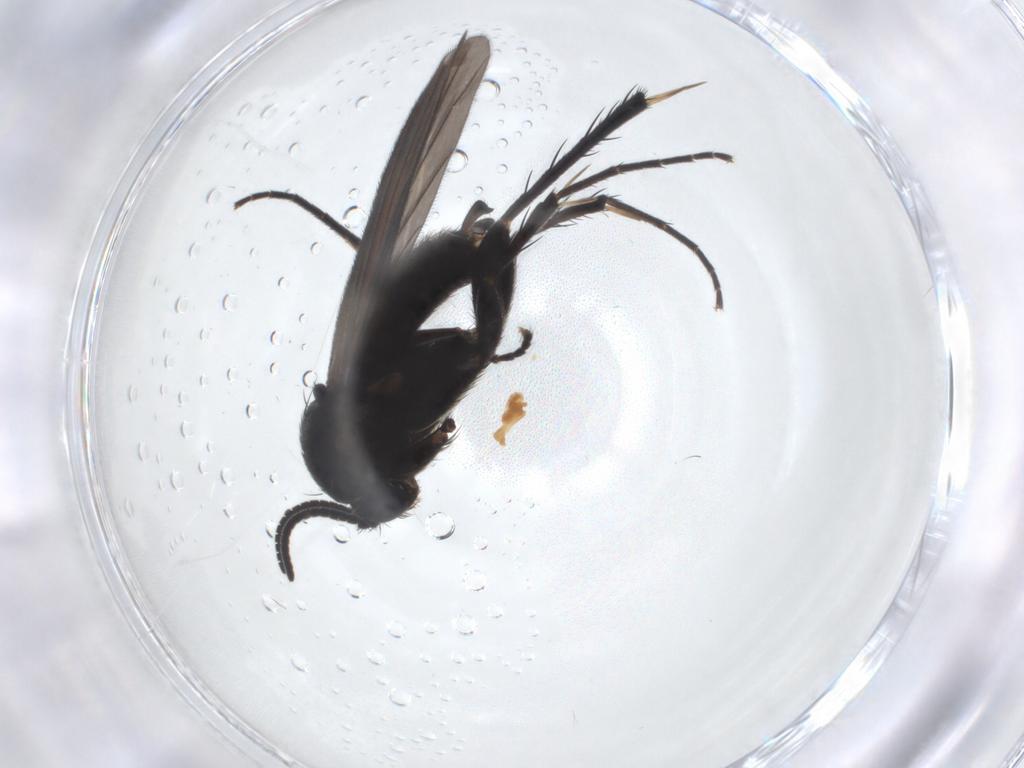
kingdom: Animalia
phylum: Arthropoda
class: Insecta
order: Diptera
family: Mycetophilidae
